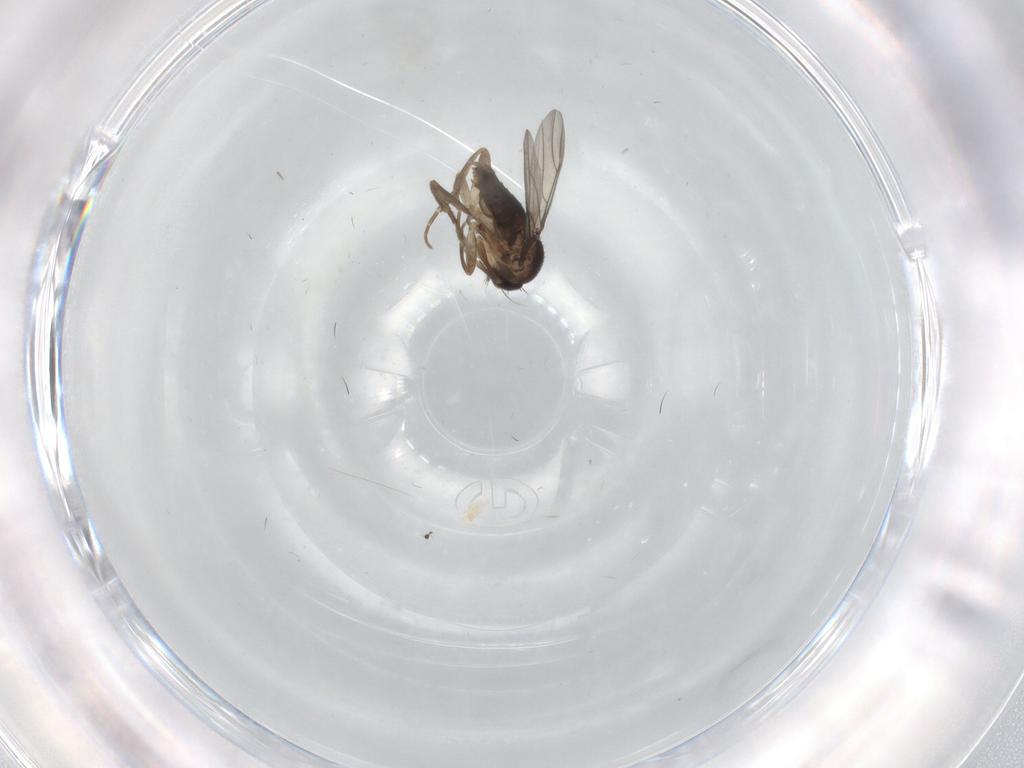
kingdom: Animalia
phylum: Arthropoda
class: Insecta
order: Diptera
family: Phoridae
